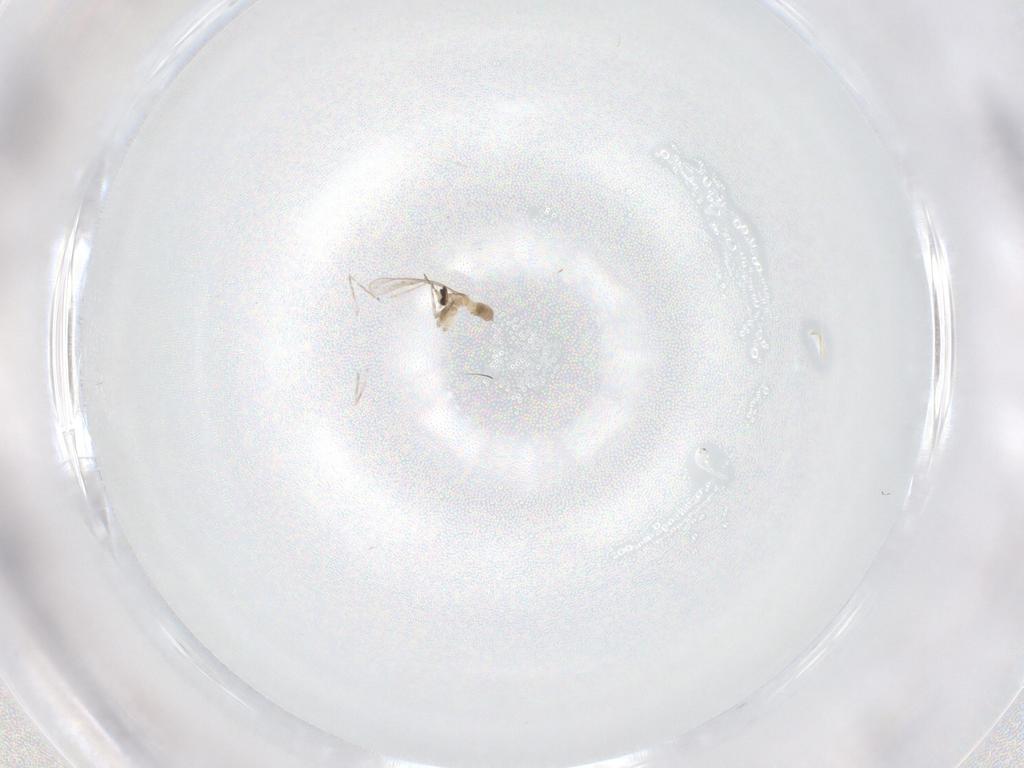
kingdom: Animalia
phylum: Arthropoda
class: Insecta
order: Diptera
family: Cecidomyiidae
